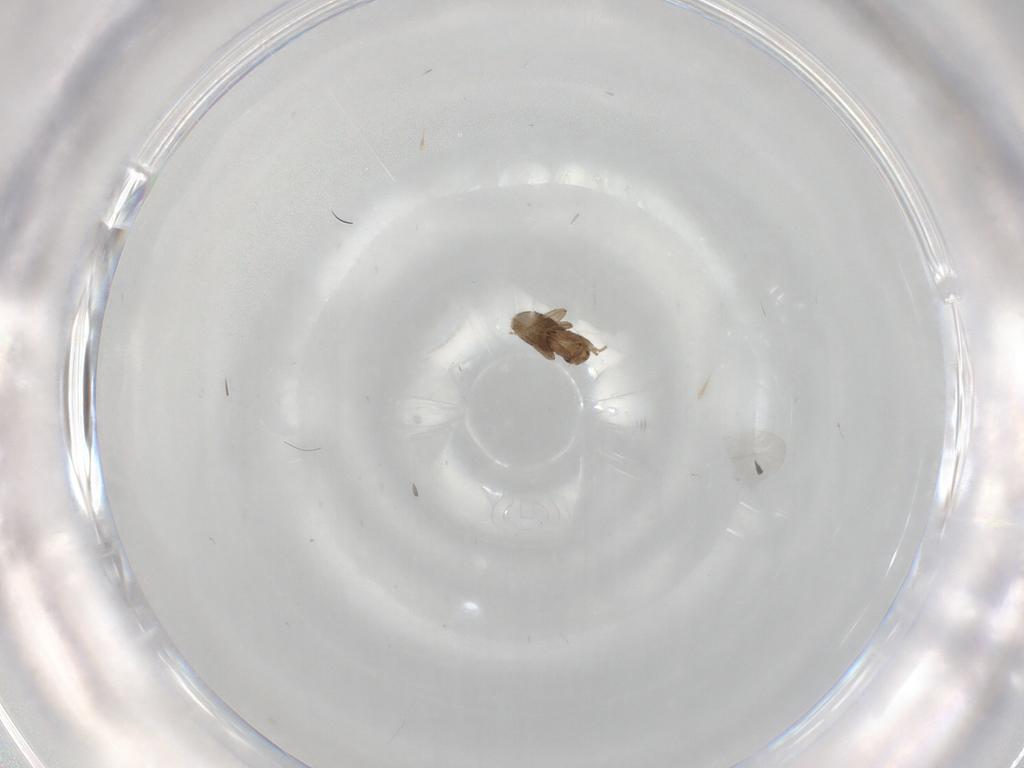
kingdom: Animalia
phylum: Arthropoda
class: Insecta
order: Diptera
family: Cecidomyiidae
